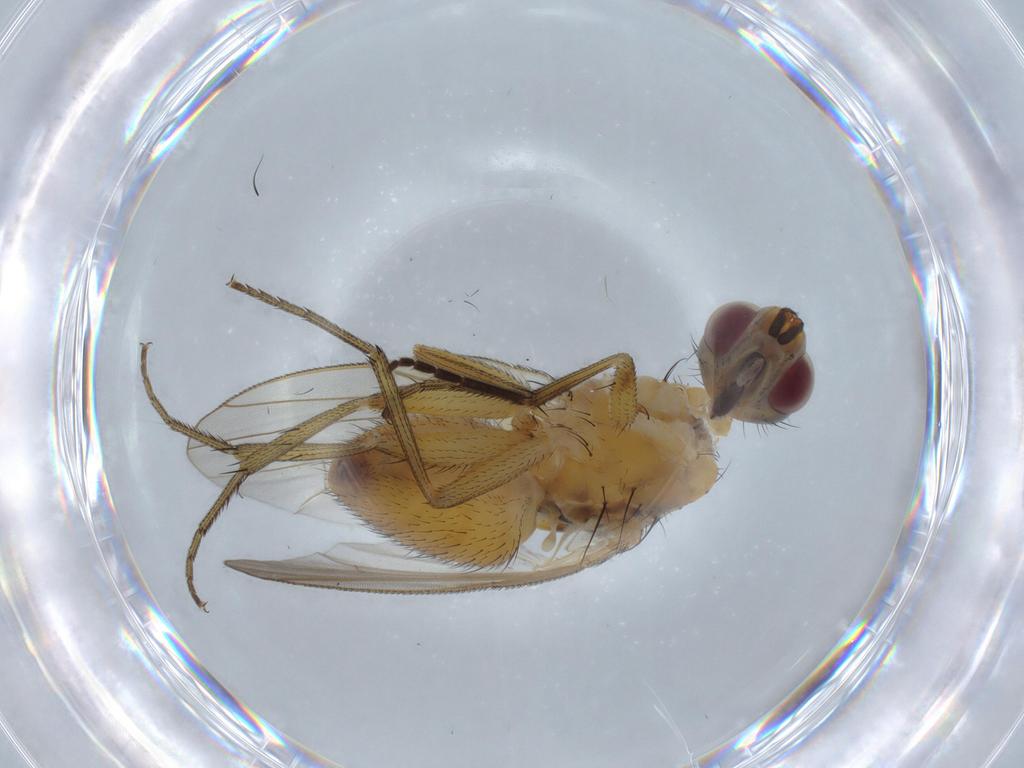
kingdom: Animalia
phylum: Arthropoda
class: Insecta
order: Diptera
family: Muscidae
